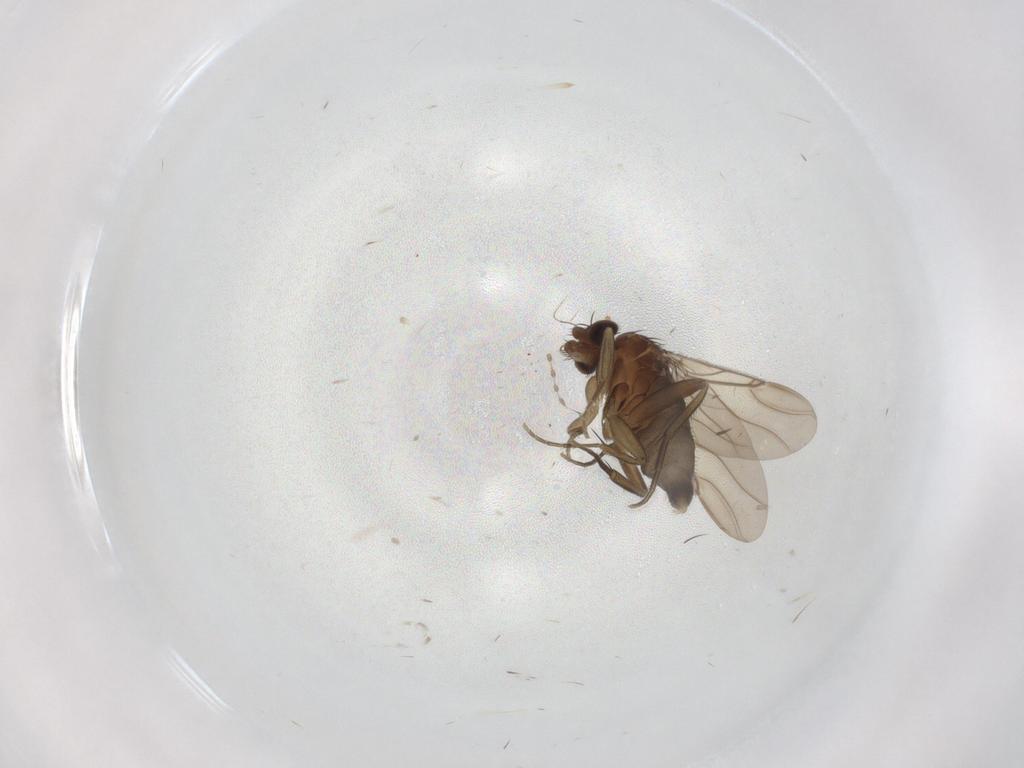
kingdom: Animalia
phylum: Arthropoda
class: Insecta
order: Diptera
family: Phoridae
